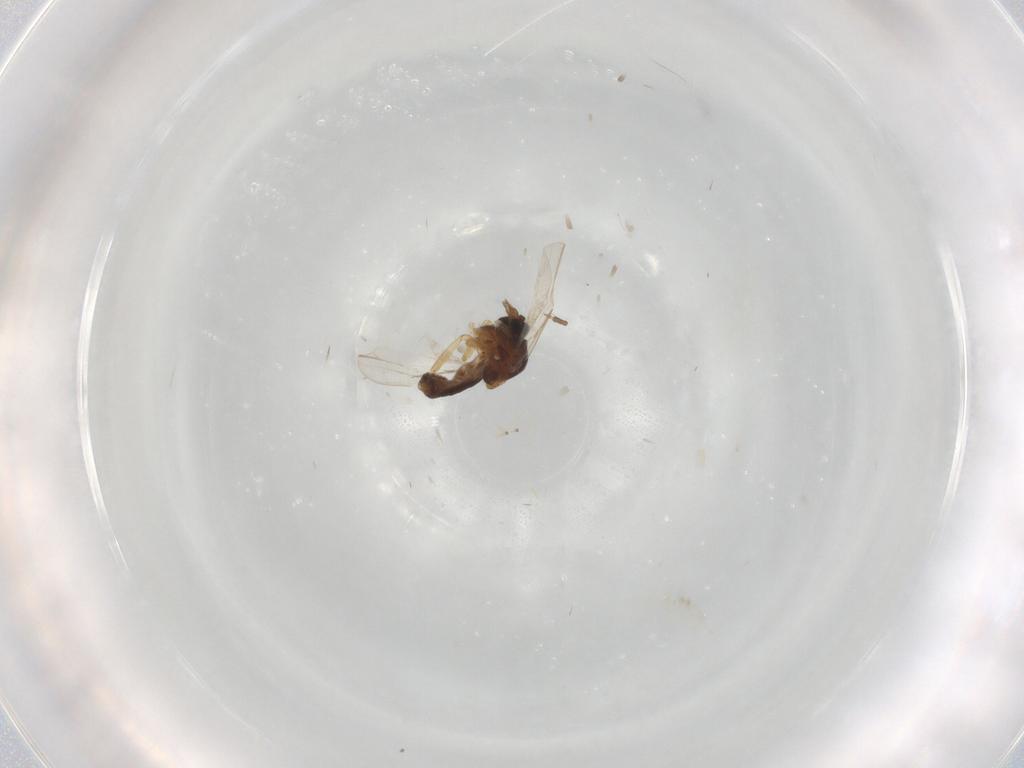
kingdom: Animalia
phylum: Arthropoda
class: Insecta
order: Diptera
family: Ceratopogonidae
